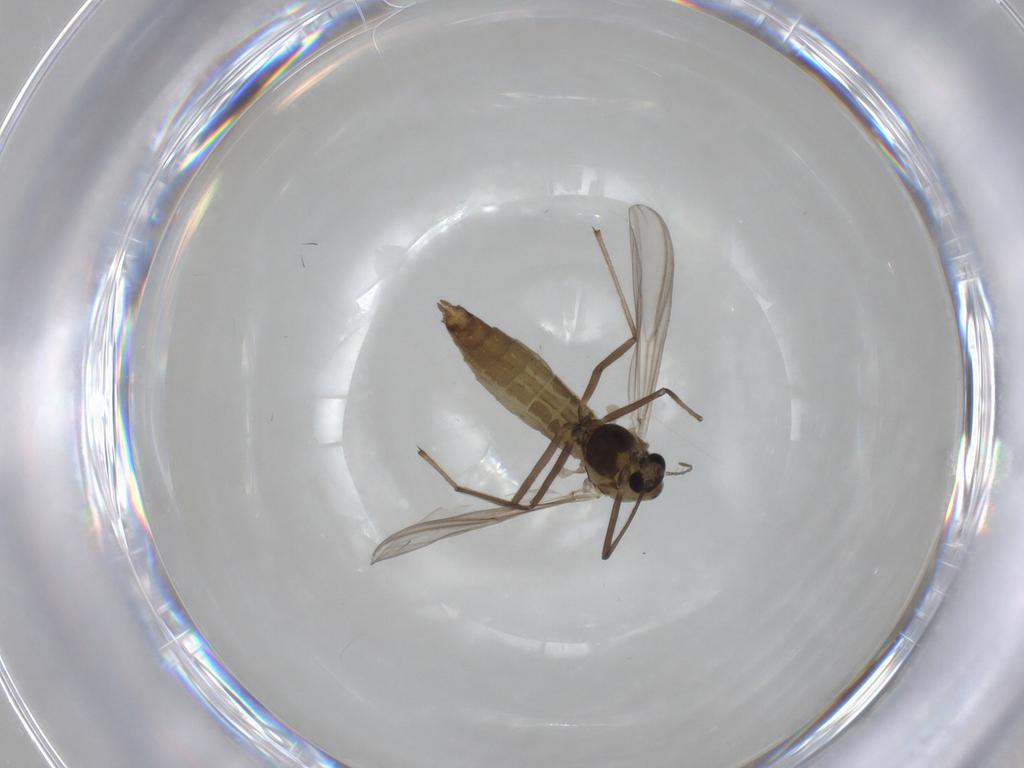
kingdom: Animalia
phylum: Arthropoda
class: Insecta
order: Diptera
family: Chironomidae
